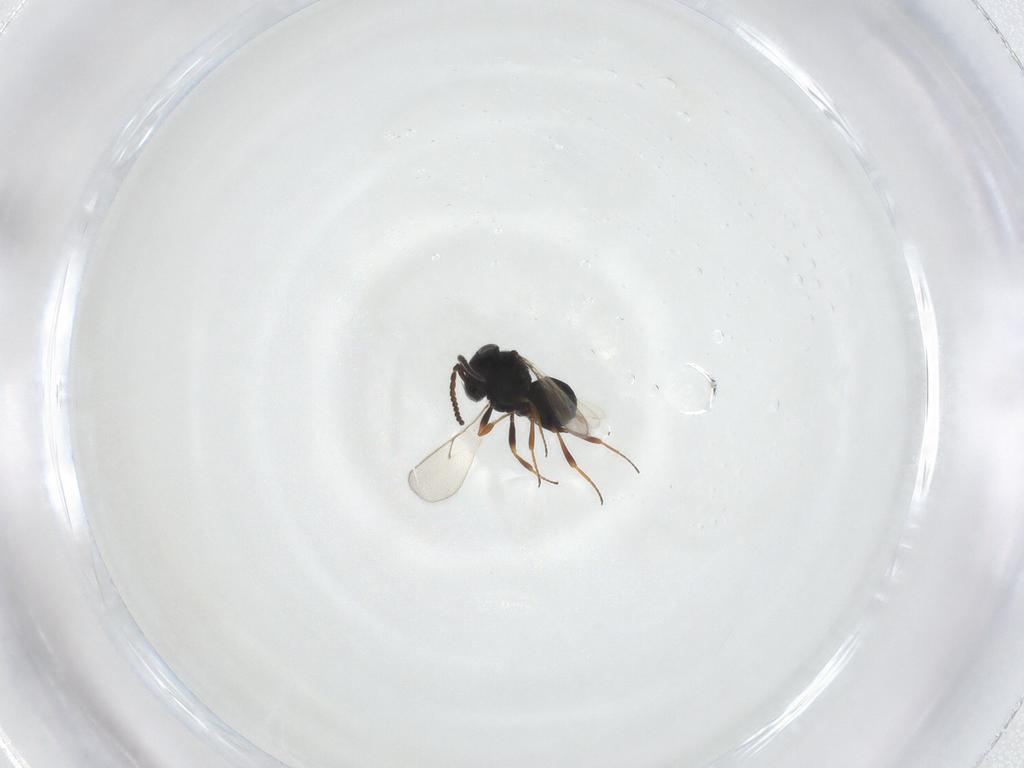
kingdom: Animalia
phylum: Arthropoda
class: Insecta
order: Hymenoptera
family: Scelionidae
